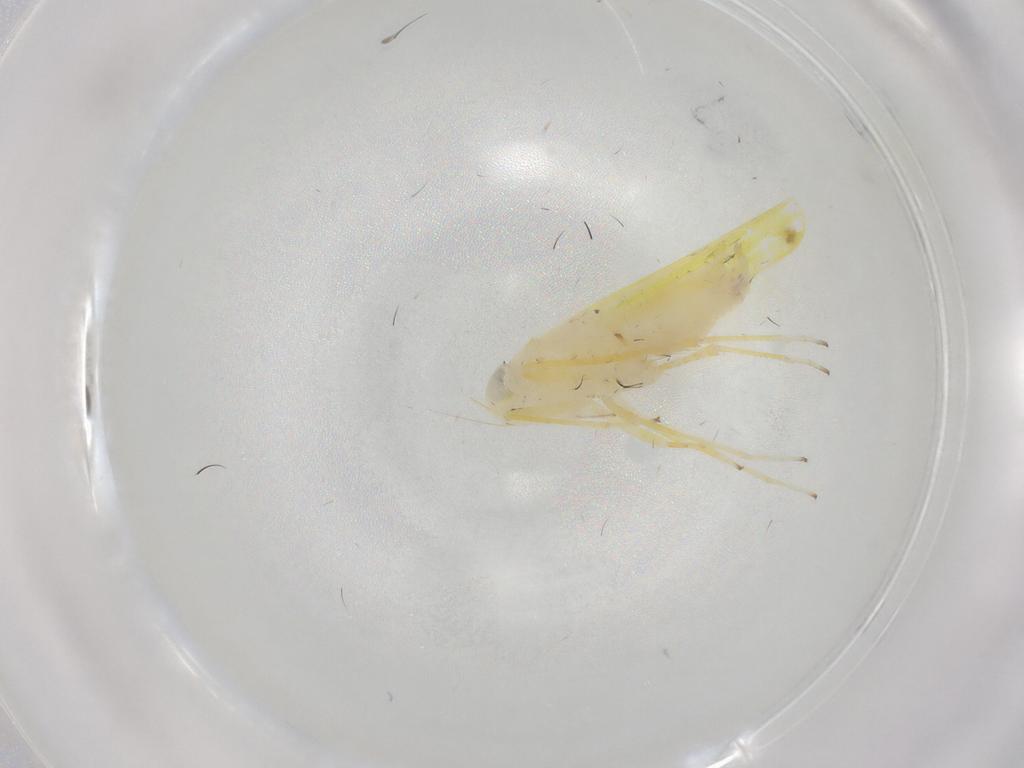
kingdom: Animalia
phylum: Arthropoda
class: Insecta
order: Hemiptera
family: Cicadellidae
